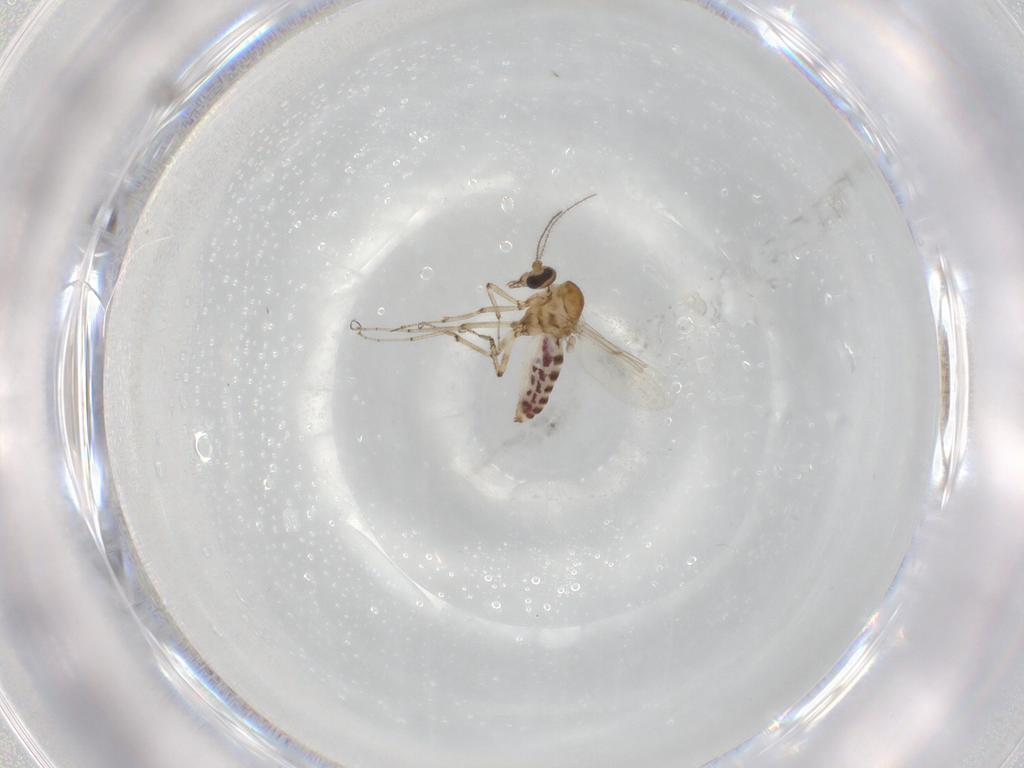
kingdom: Animalia
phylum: Arthropoda
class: Insecta
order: Diptera
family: Ceratopogonidae
